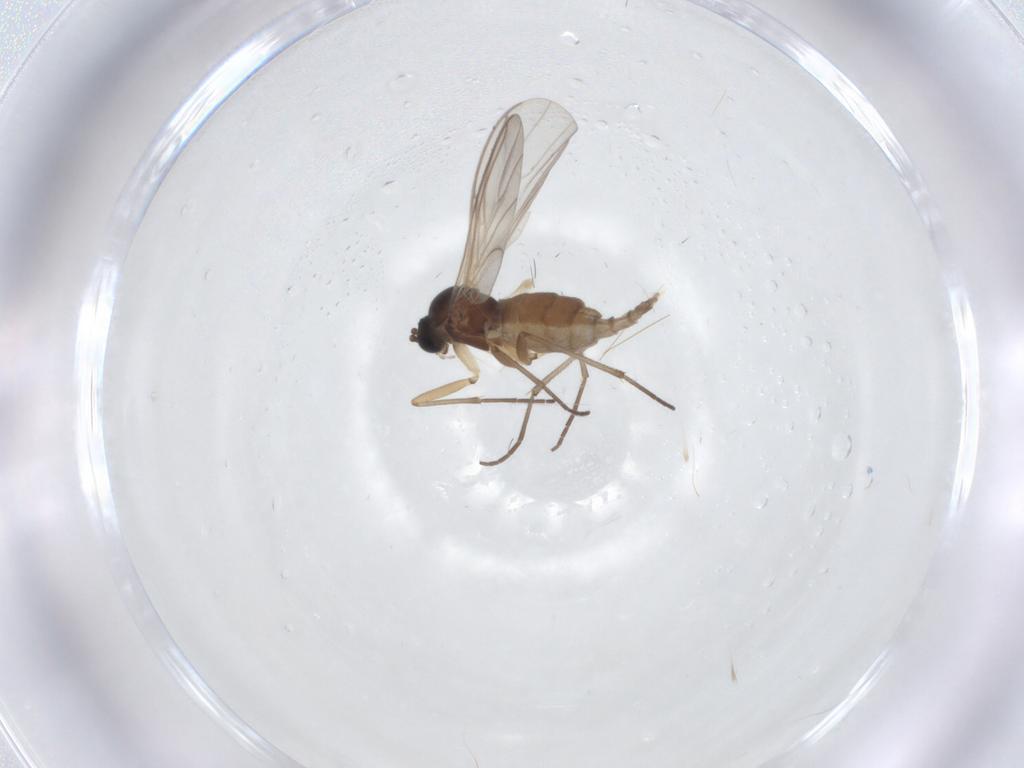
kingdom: Animalia
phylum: Arthropoda
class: Insecta
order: Diptera
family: Sciaridae
